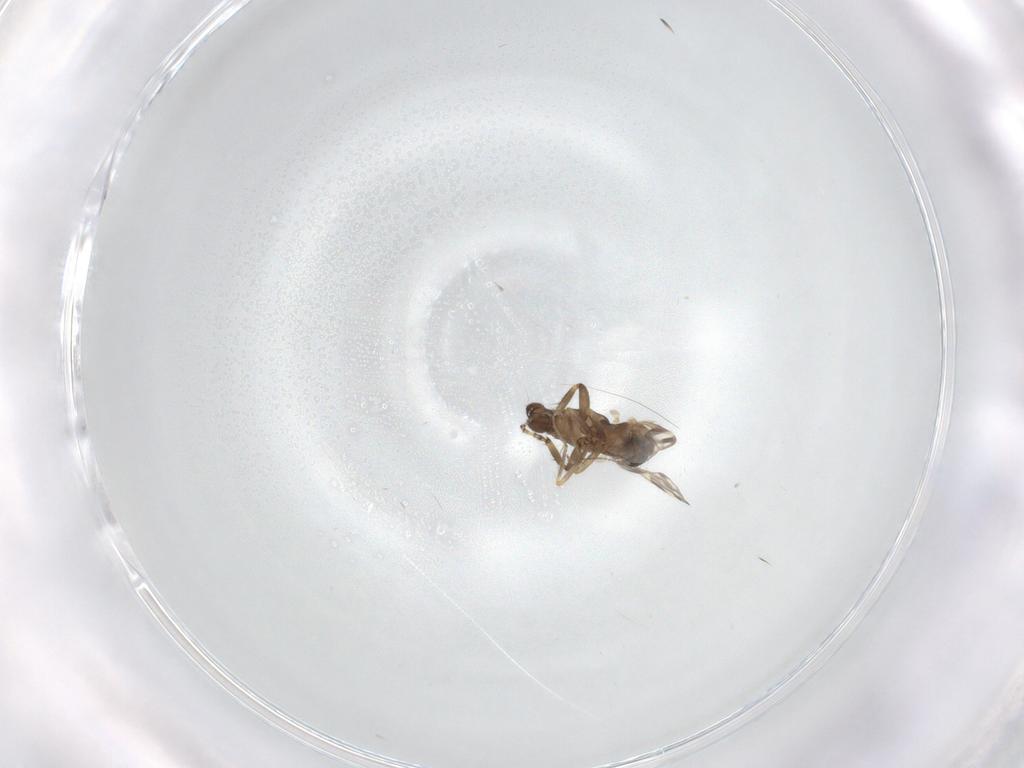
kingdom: Animalia
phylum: Arthropoda
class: Insecta
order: Diptera
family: Ceratopogonidae
